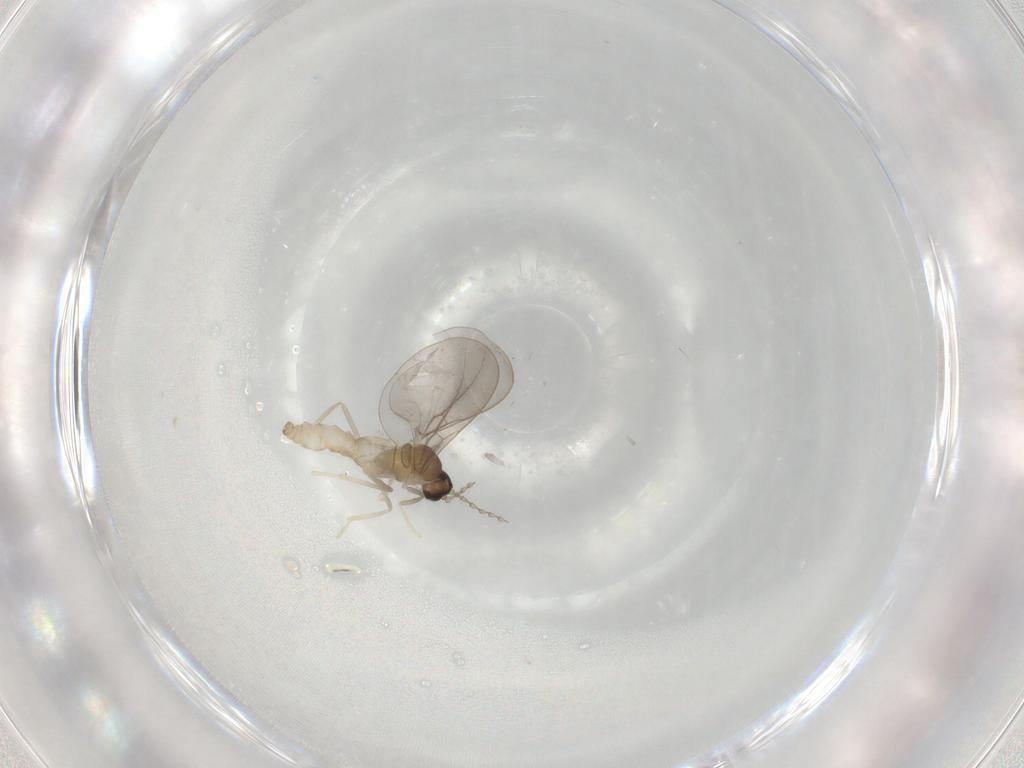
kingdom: Animalia
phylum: Arthropoda
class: Insecta
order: Diptera
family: Cecidomyiidae
